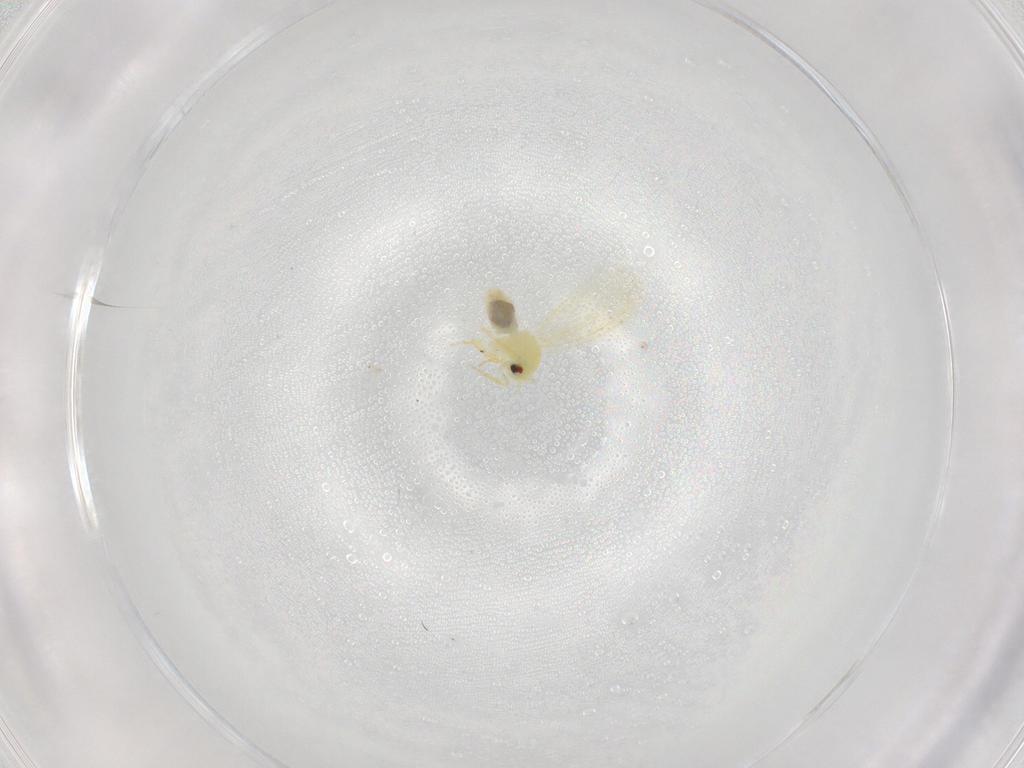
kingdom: Animalia
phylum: Arthropoda
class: Insecta
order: Hemiptera
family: Aleyrodidae
